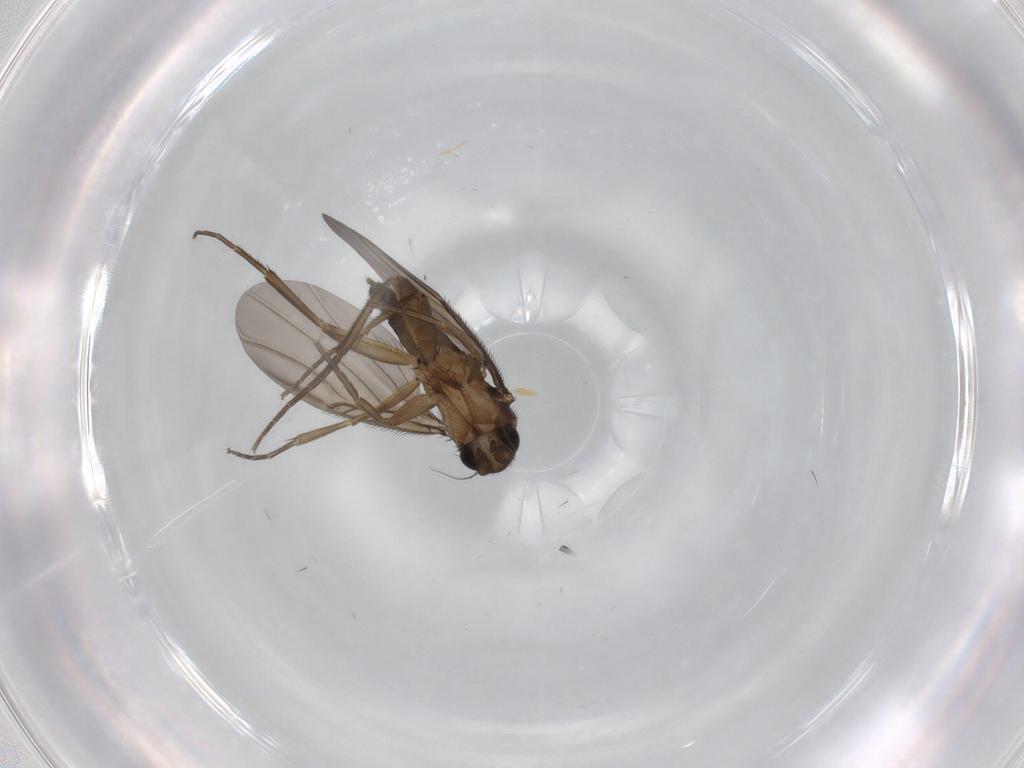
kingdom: Animalia
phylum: Arthropoda
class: Insecta
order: Diptera
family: Phoridae
